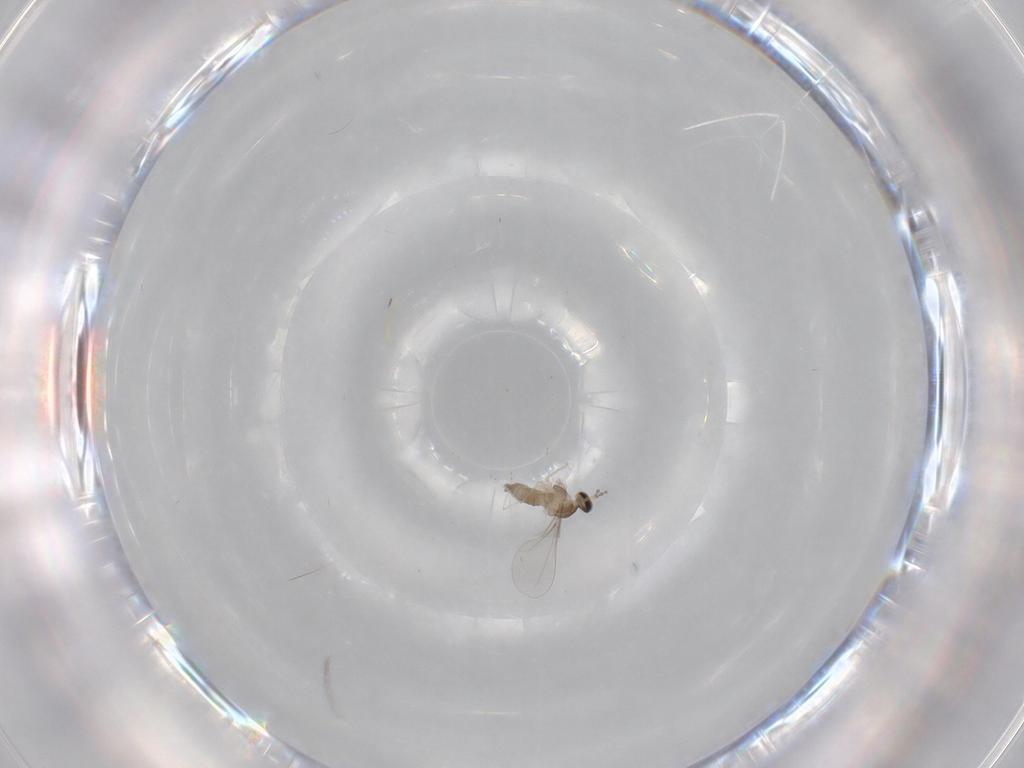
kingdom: Animalia
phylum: Arthropoda
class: Insecta
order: Diptera
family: Cecidomyiidae
